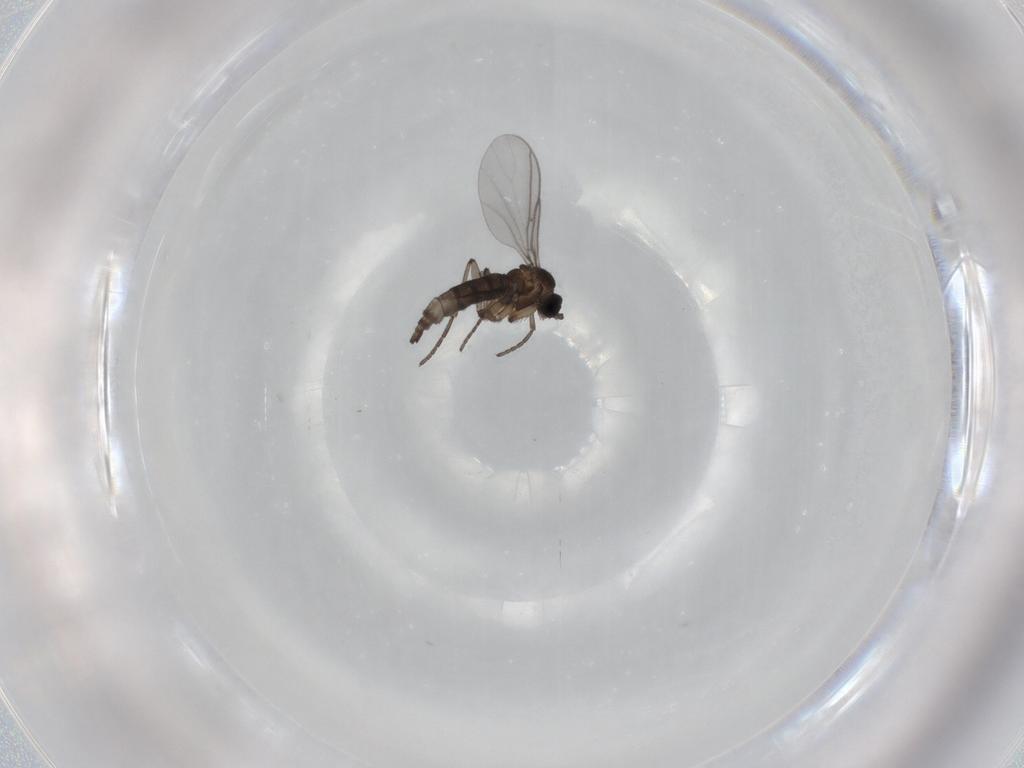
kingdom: Animalia
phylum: Arthropoda
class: Insecta
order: Diptera
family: Dolichopodidae
